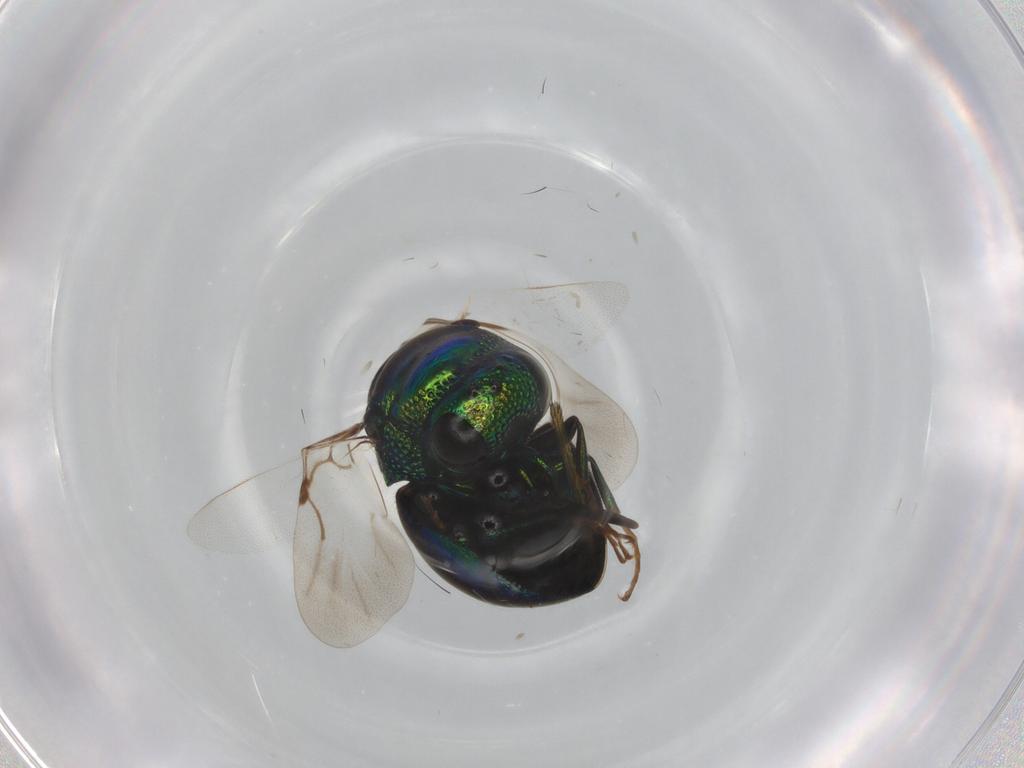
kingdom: Animalia
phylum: Arthropoda
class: Insecta
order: Hymenoptera
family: Chrysididae
